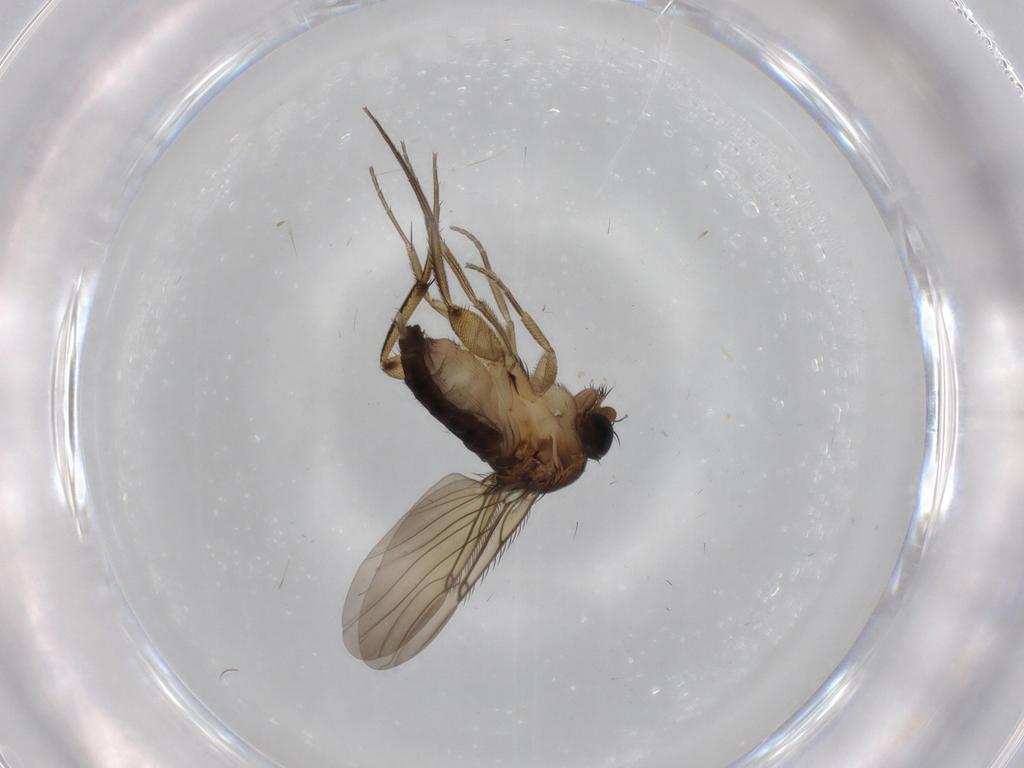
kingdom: Animalia
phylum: Arthropoda
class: Insecta
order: Diptera
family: Phoridae
